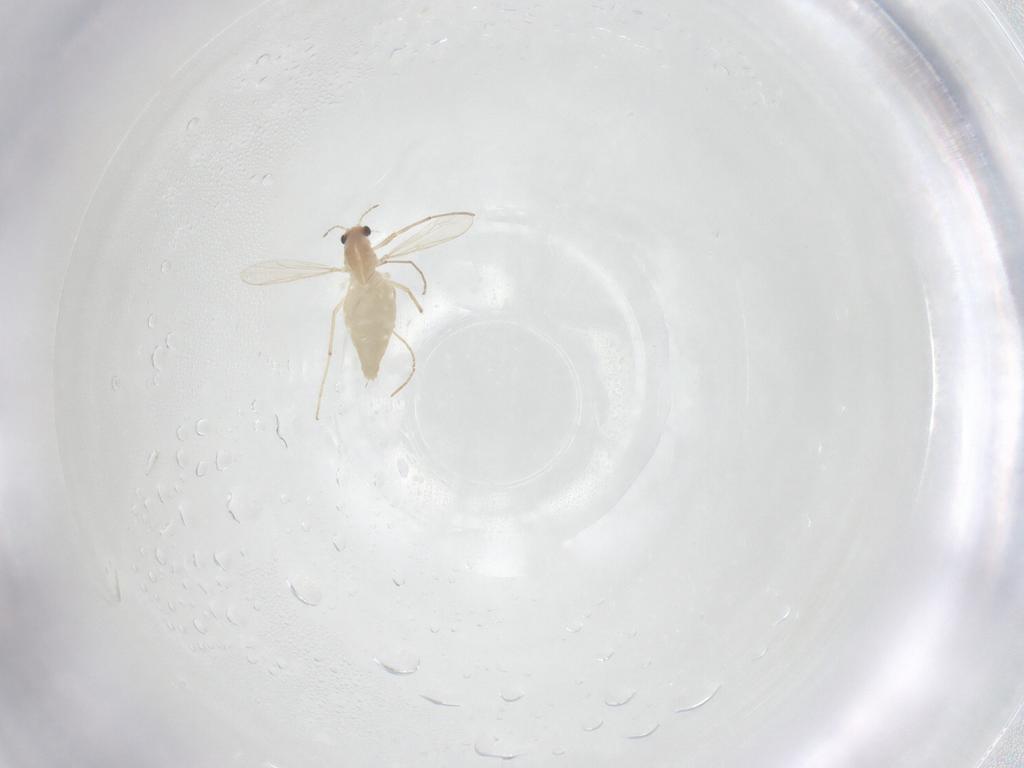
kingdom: Animalia
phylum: Arthropoda
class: Insecta
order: Diptera
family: Chironomidae
